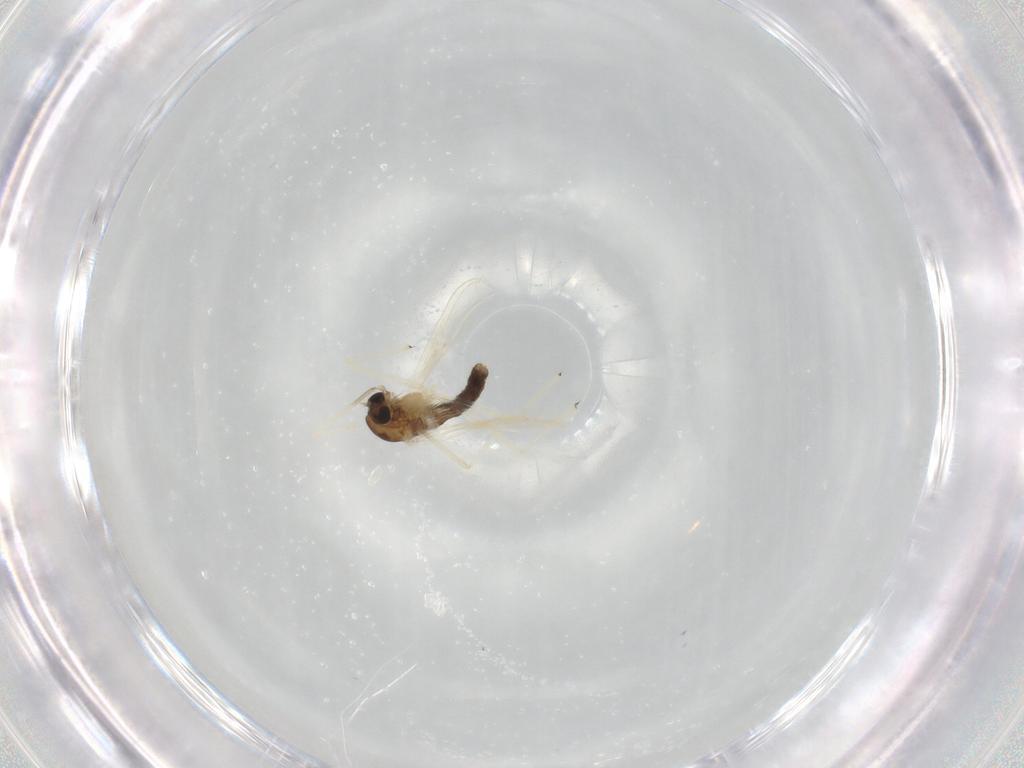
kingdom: Animalia
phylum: Arthropoda
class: Insecta
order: Diptera
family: Chironomidae
